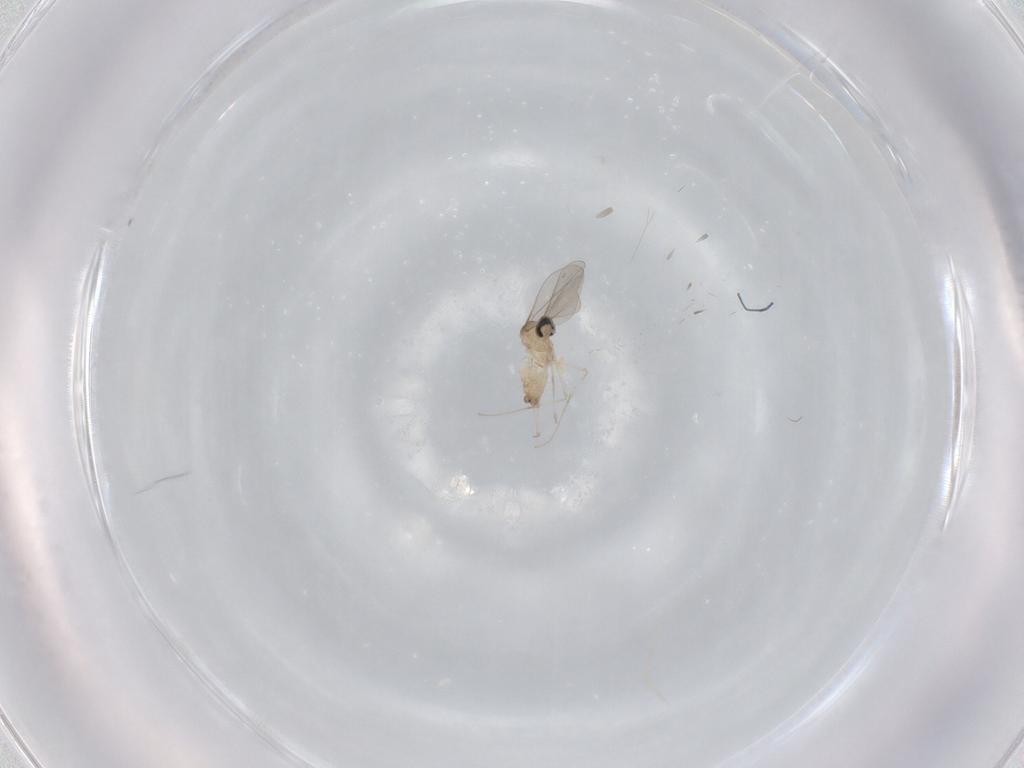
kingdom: Animalia
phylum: Arthropoda
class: Insecta
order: Diptera
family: Cecidomyiidae
